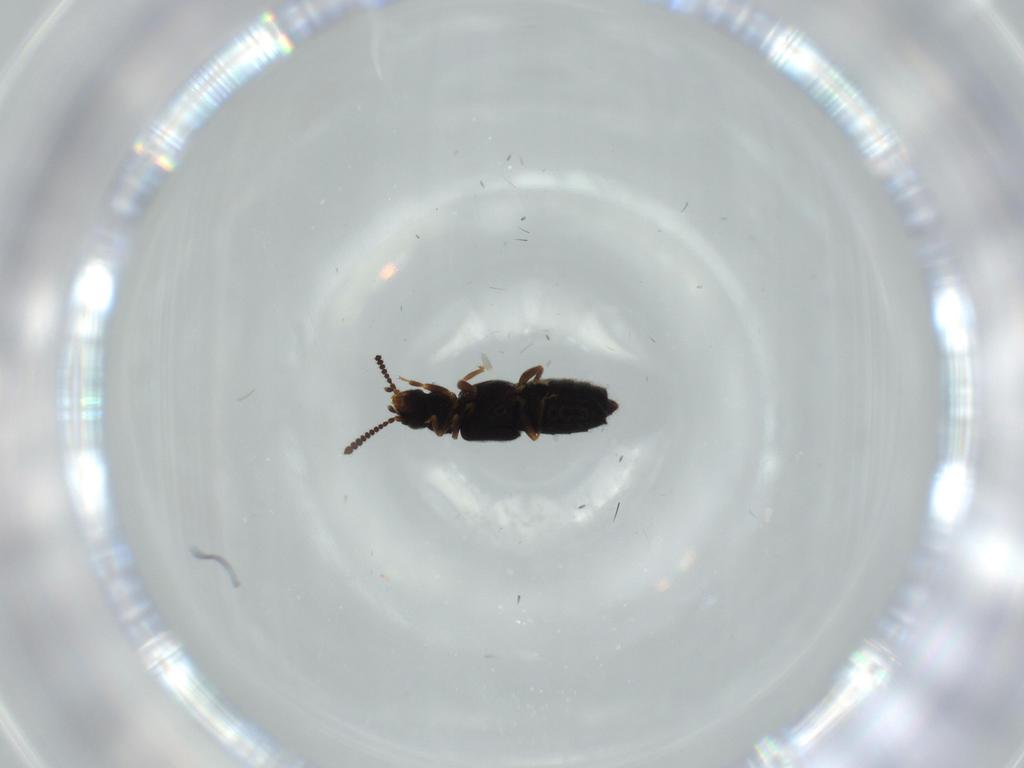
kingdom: Animalia
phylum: Arthropoda
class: Insecta
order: Coleoptera
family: Staphylinidae
